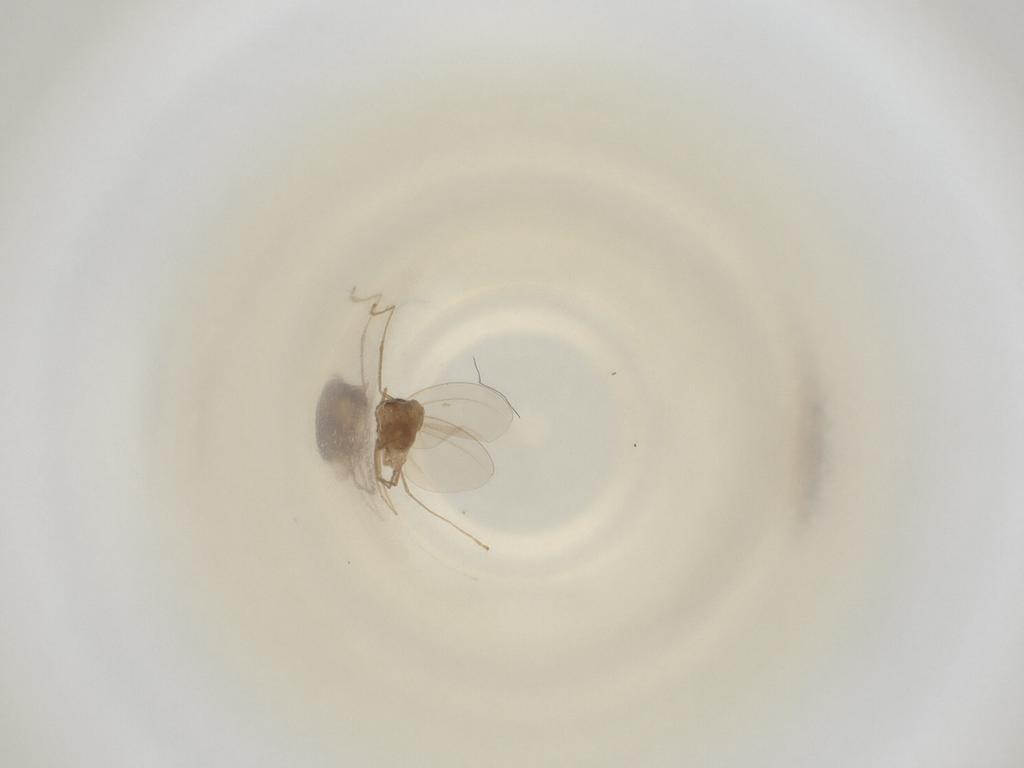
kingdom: Animalia
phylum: Arthropoda
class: Insecta
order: Diptera
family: Cecidomyiidae
